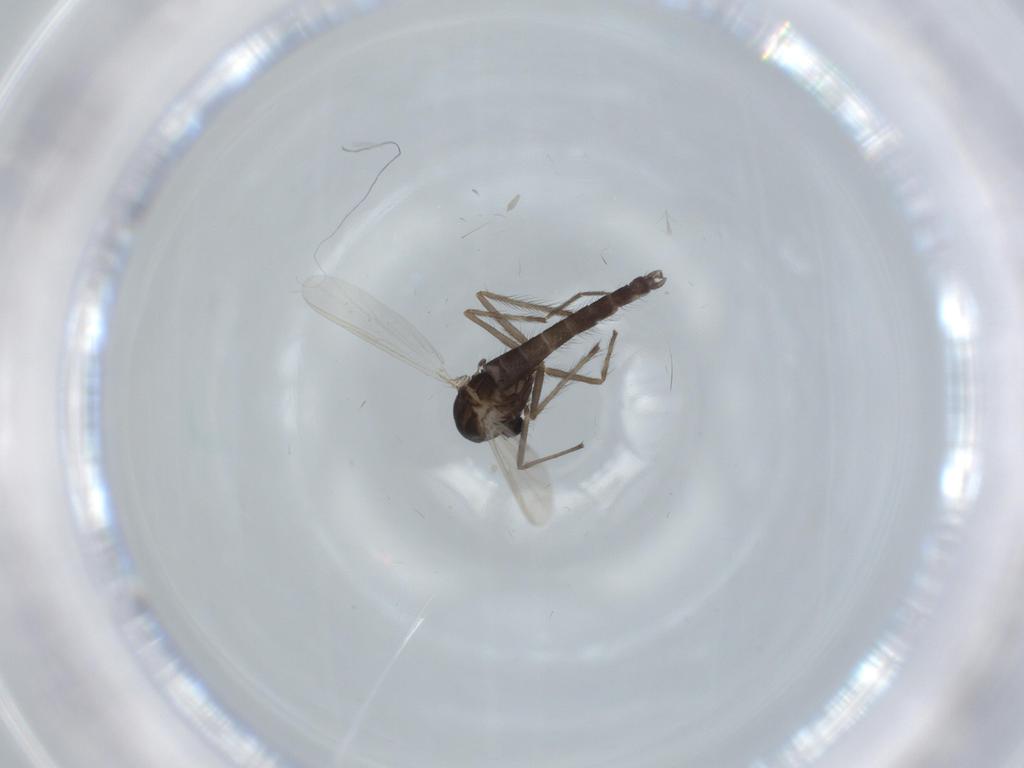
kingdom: Animalia
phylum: Arthropoda
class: Insecta
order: Diptera
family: Chironomidae
